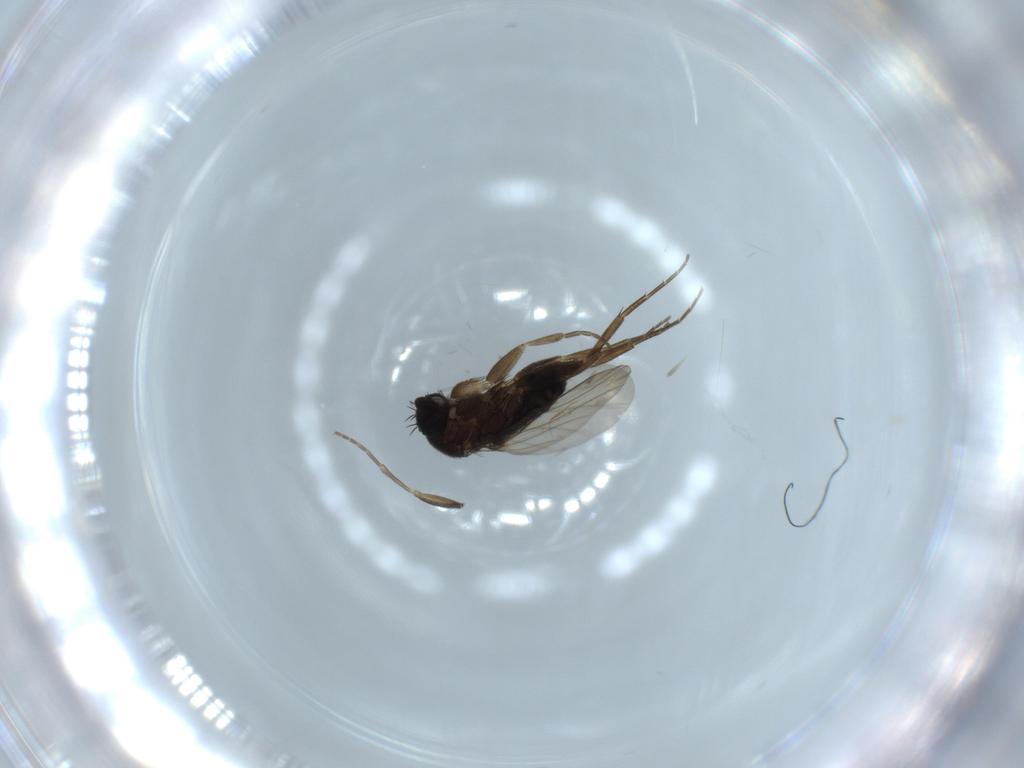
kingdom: Animalia
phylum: Arthropoda
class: Insecta
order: Diptera
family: Phoridae
